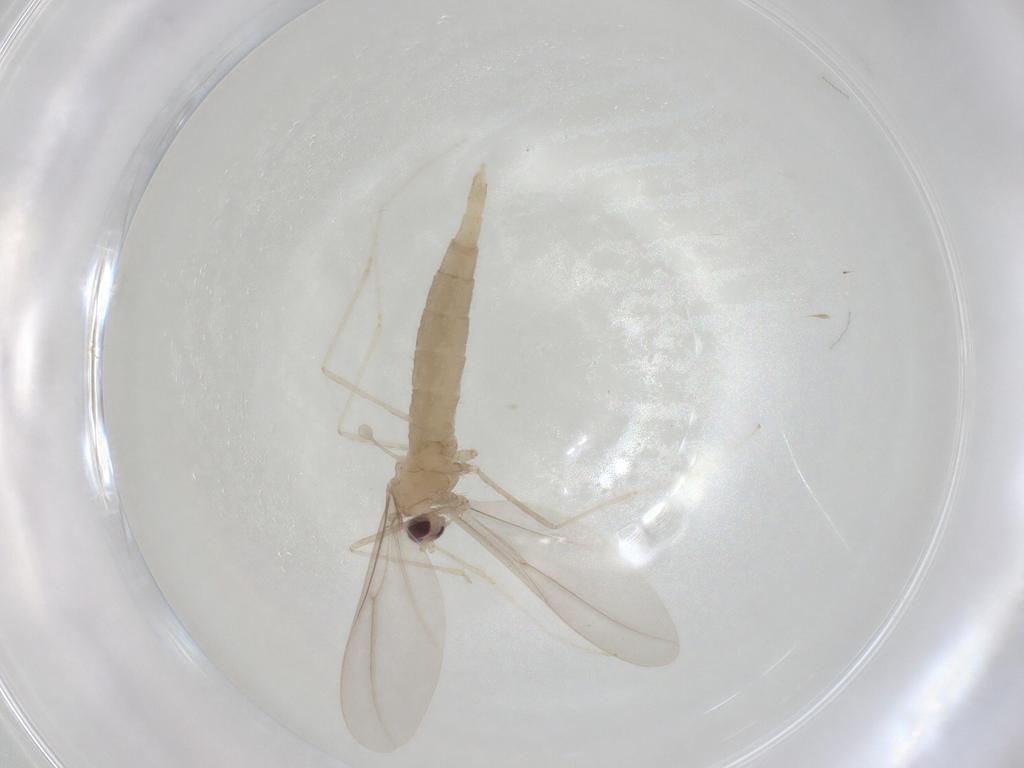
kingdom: Animalia
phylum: Arthropoda
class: Insecta
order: Diptera
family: Cecidomyiidae
